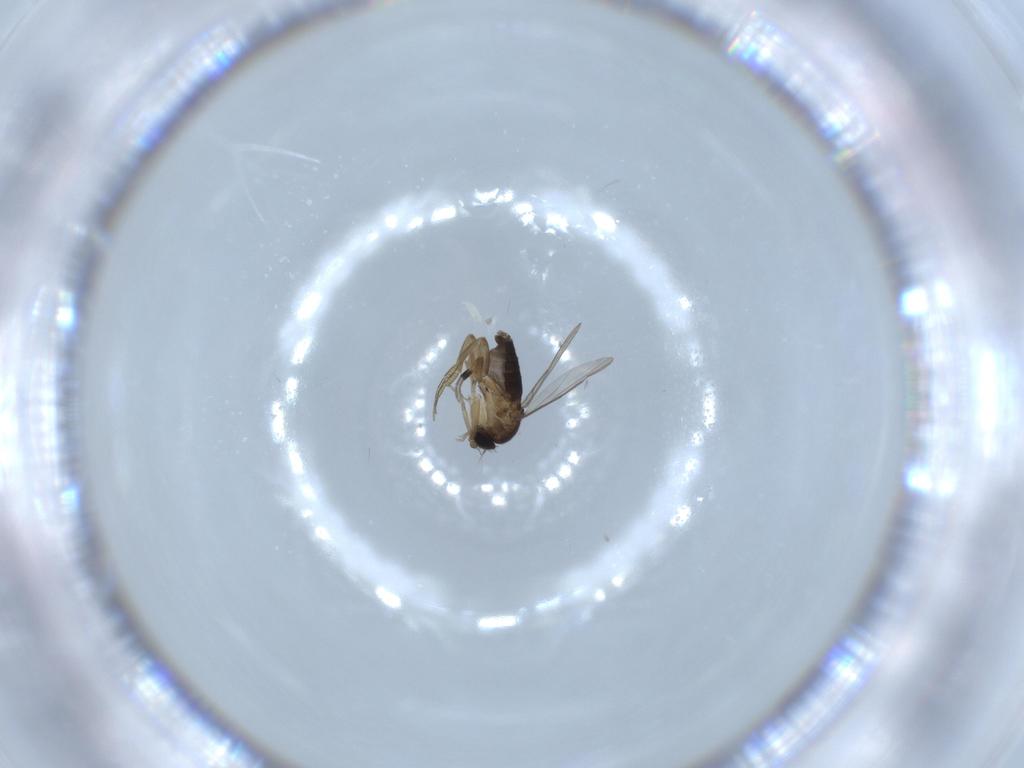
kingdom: Animalia
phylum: Arthropoda
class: Insecta
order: Diptera
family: Phoridae
